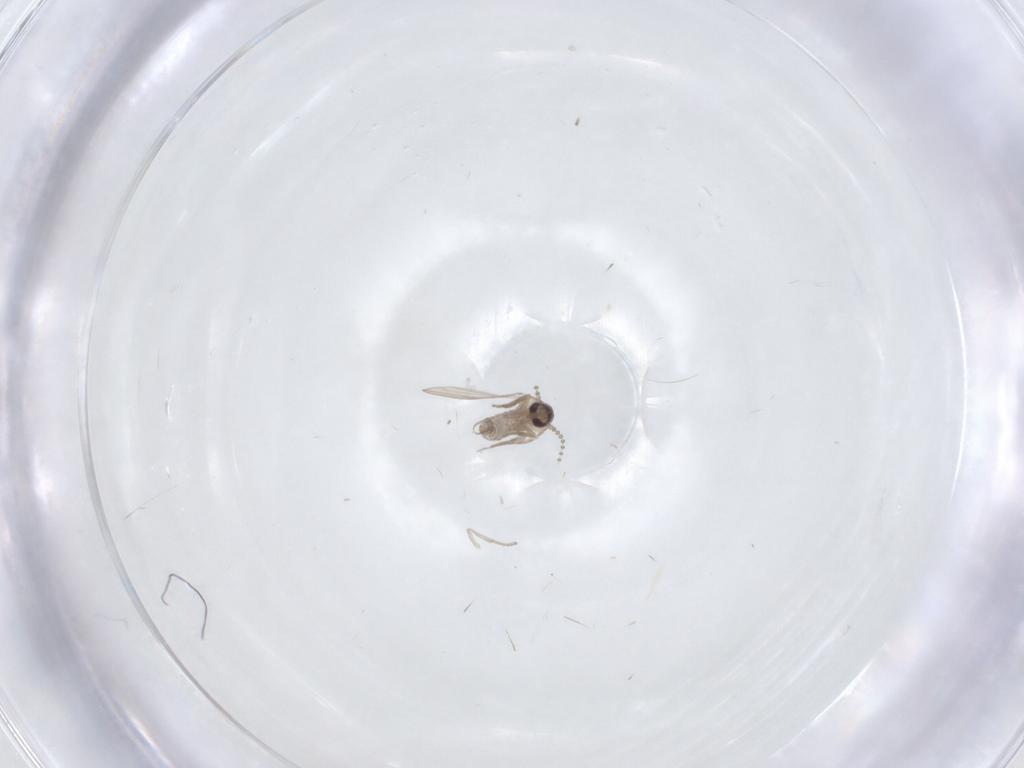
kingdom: Animalia
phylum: Arthropoda
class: Insecta
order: Diptera
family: Psychodidae
